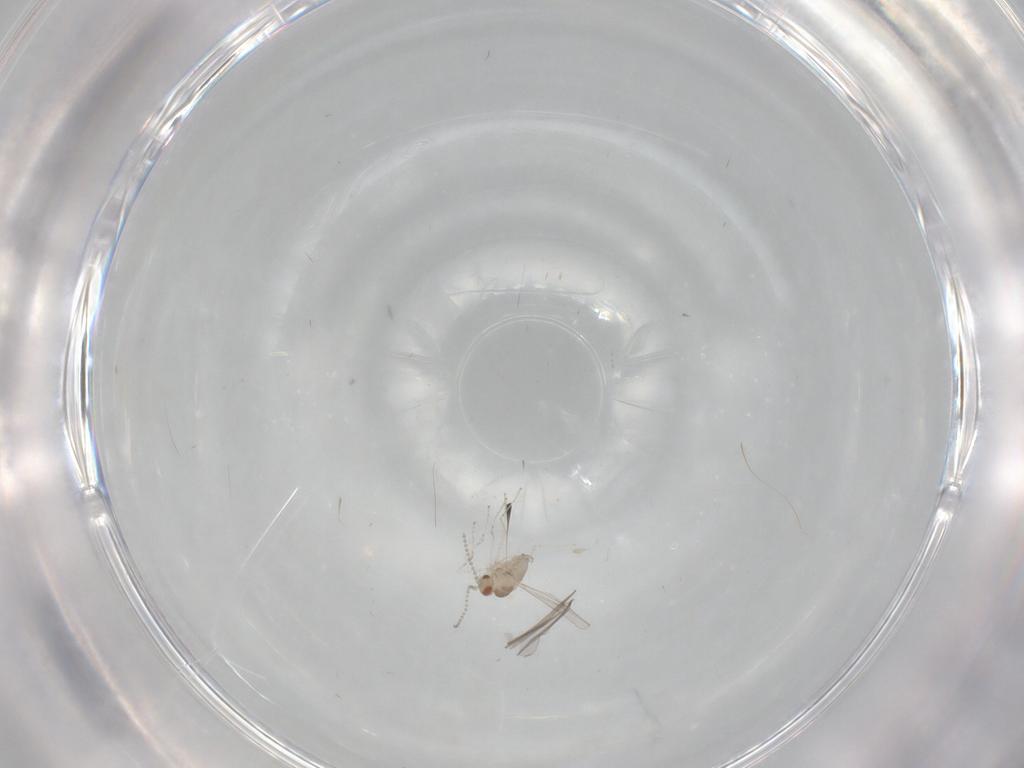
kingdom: Animalia
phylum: Arthropoda
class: Insecta
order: Diptera
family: Cecidomyiidae
